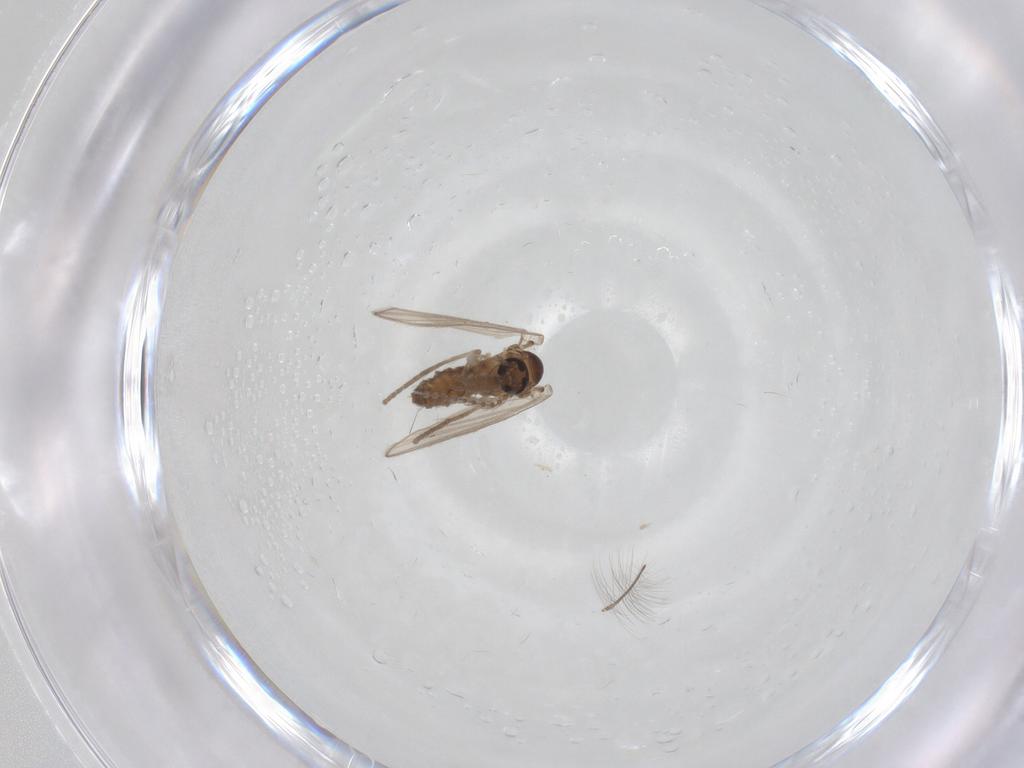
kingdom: Animalia
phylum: Arthropoda
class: Insecta
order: Diptera
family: Psychodidae
